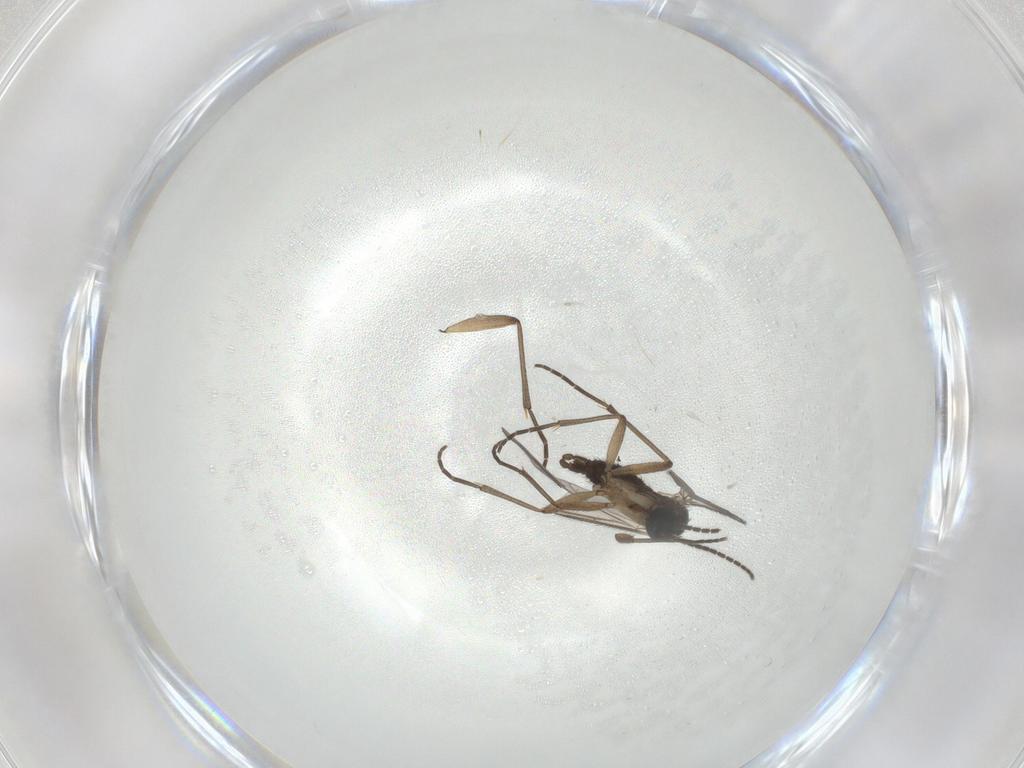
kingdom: Animalia
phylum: Arthropoda
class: Insecta
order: Diptera
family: Sciaridae
